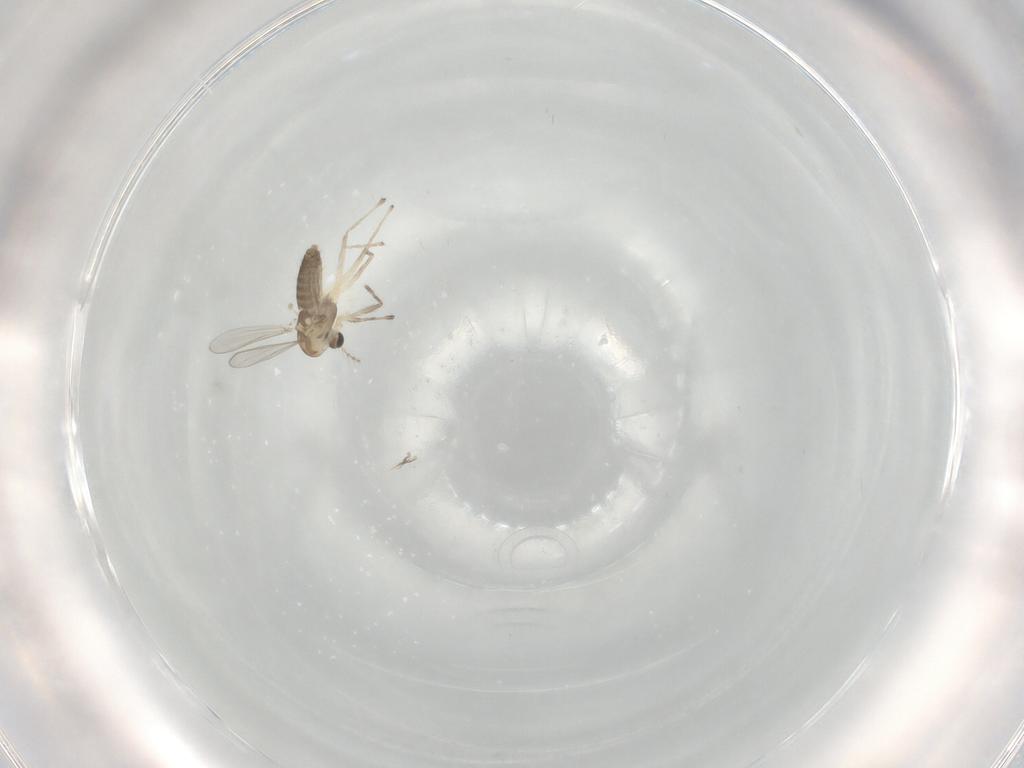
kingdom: Animalia
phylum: Arthropoda
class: Insecta
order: Diptera
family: Chironomidae
